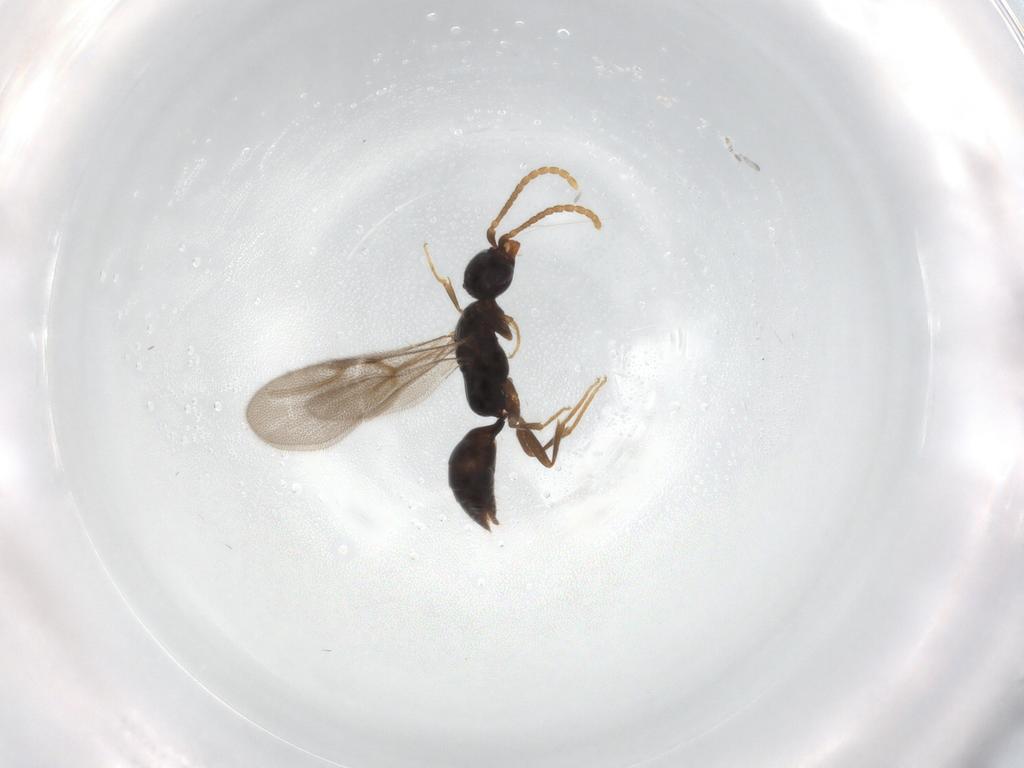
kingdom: Animalia
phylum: Arthropoda
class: Insecta
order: Hymenoptera
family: Bethylidae
